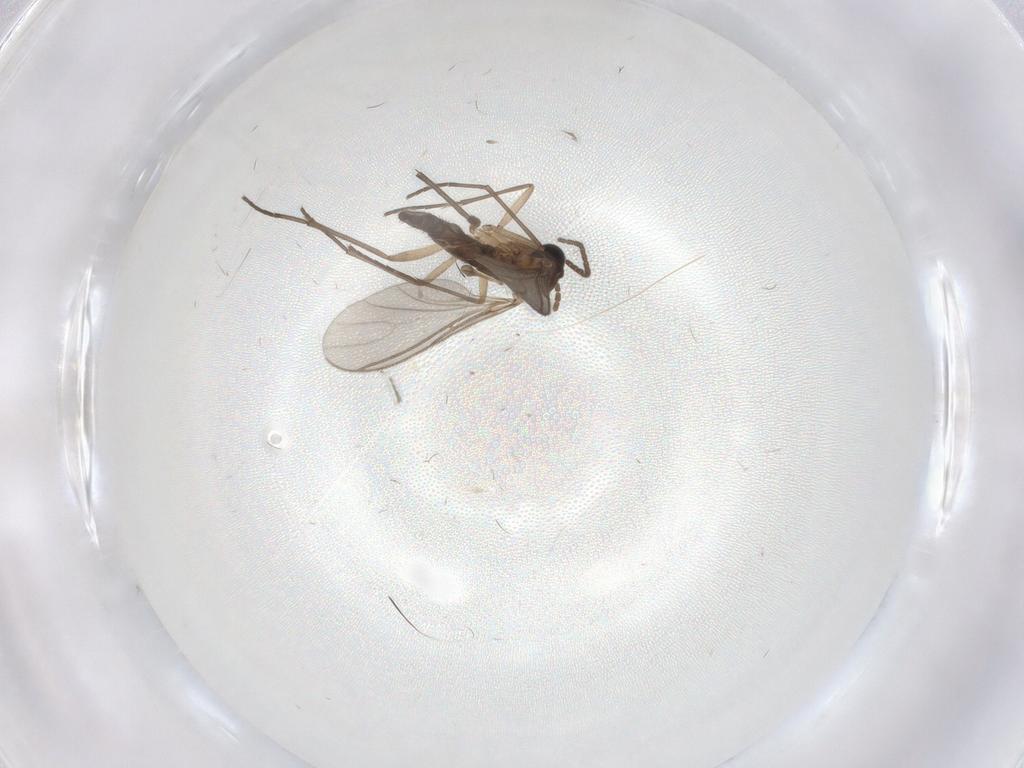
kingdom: Animalia
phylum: Arthropoda
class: Insecta
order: Diptera
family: Sciaridae
